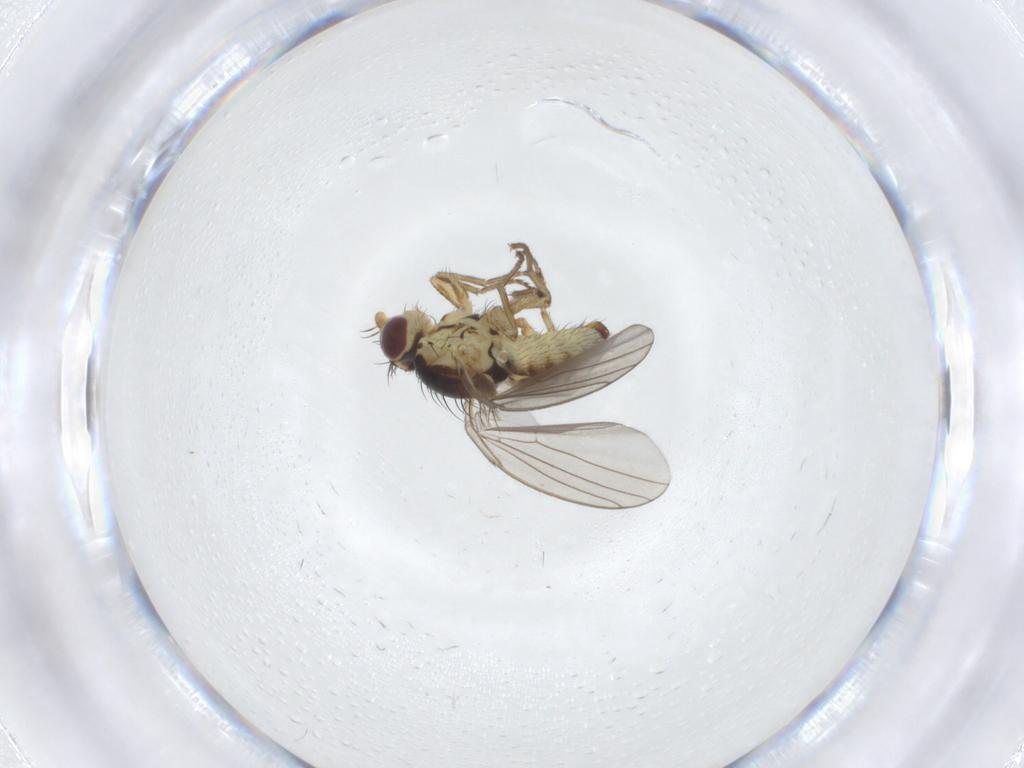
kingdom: Animalia
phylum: Arthropoda
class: Insecta
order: Diptera
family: Agromyzidae
